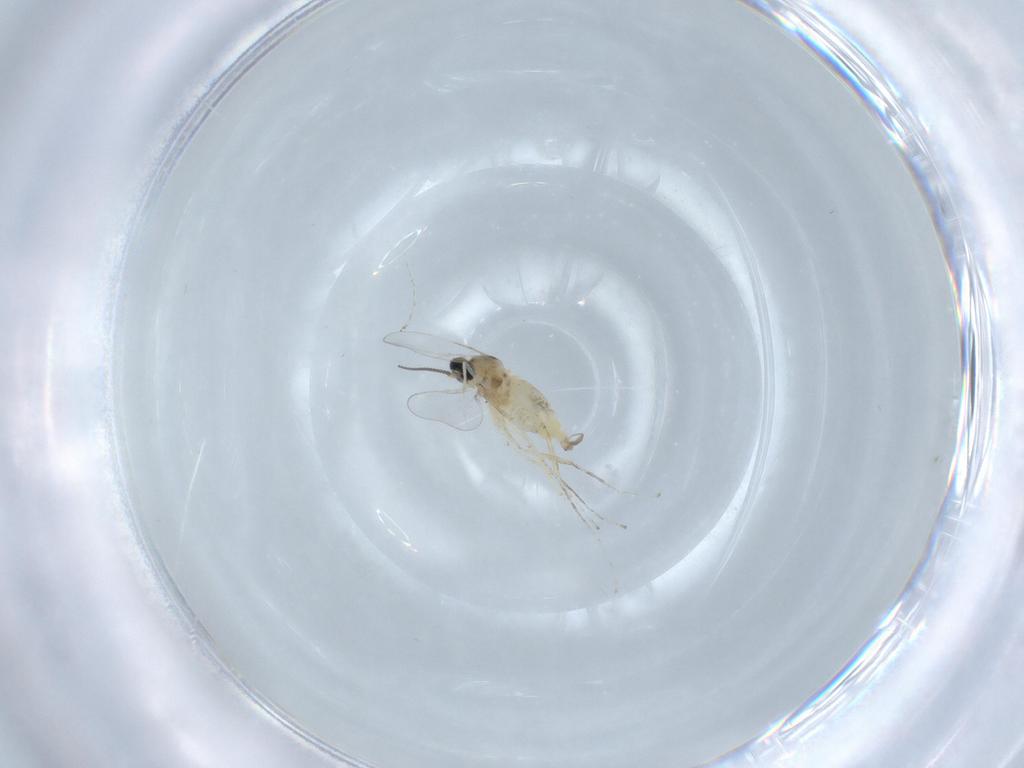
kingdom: Animalia
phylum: Arthropoda
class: Insecta
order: Diptera
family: Cecidomyiidae
